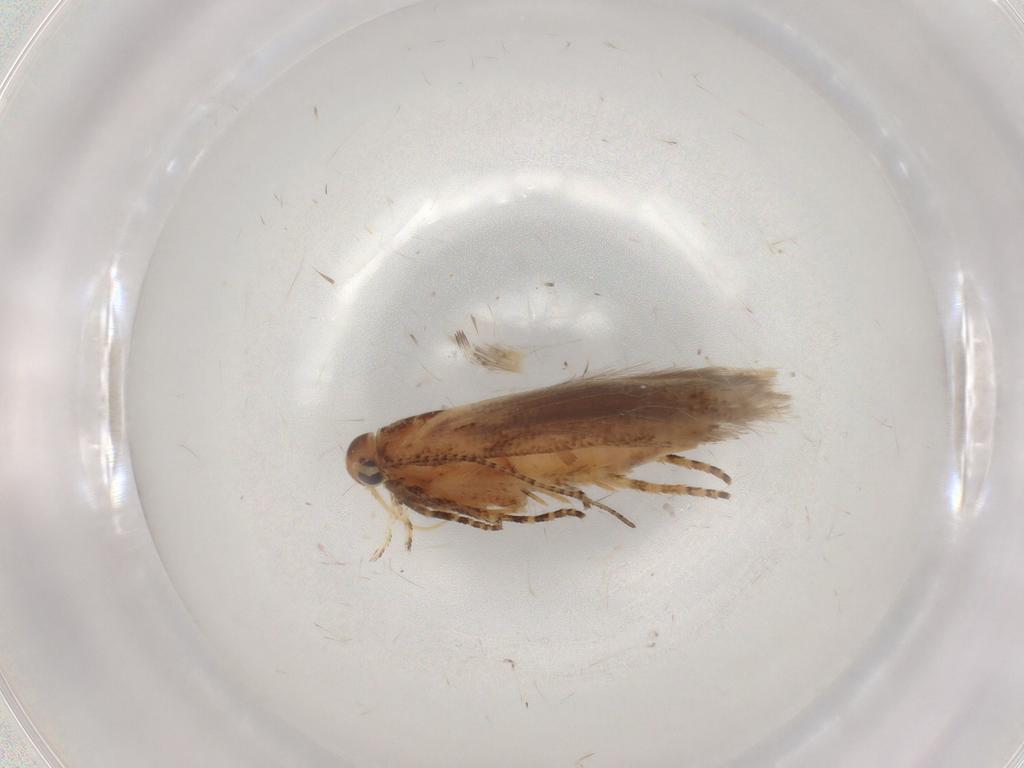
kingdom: Animalia
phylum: Arthropoda
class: Insecta
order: Lepidoptera
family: Gelechiidae
